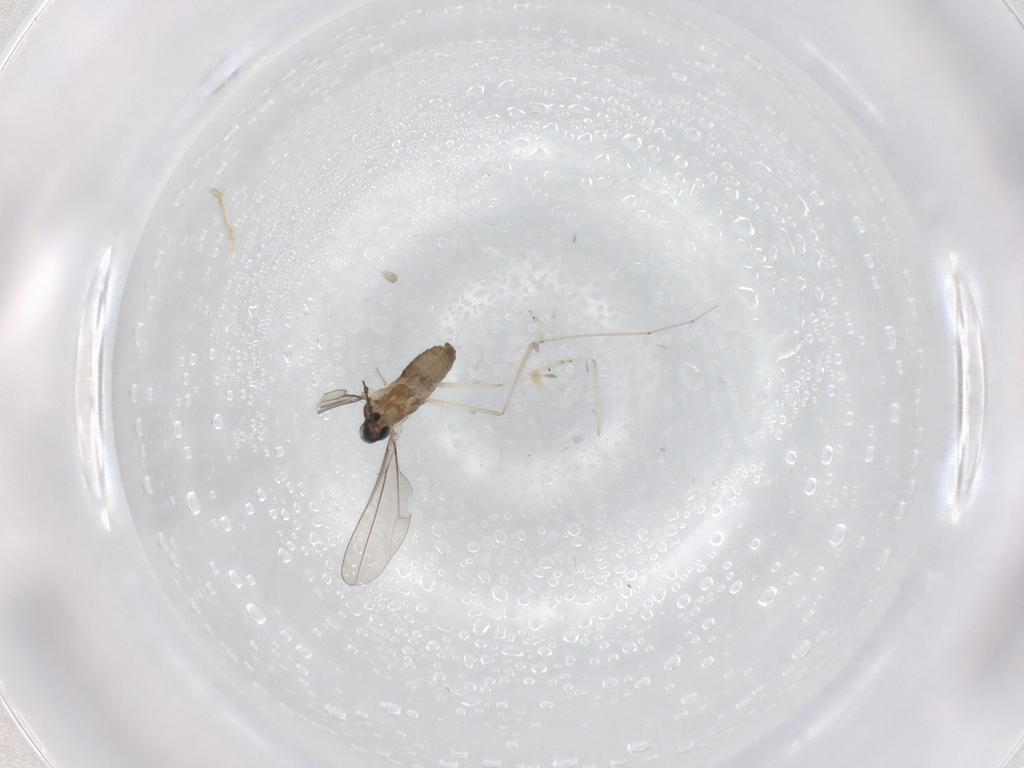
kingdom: Animalia
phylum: Arthropoda
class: Insecta
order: Diptera
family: Cecidomyiidae
